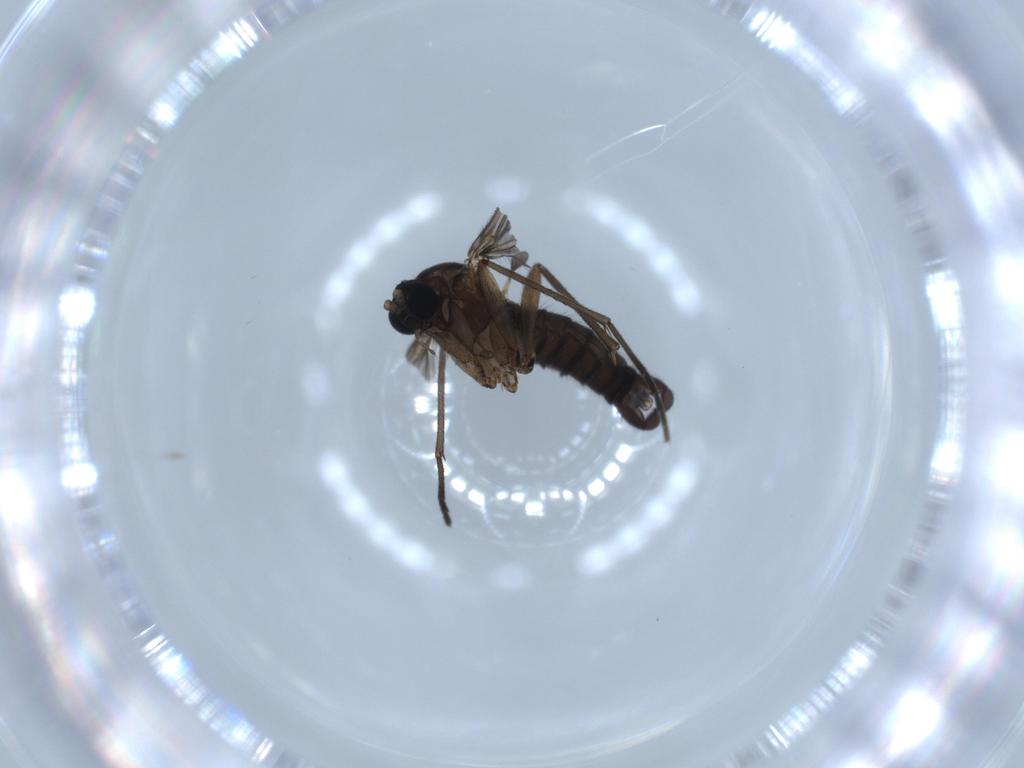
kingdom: Animalia
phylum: Arthropoda
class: Insecta
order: Diptera
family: Sciaridae
